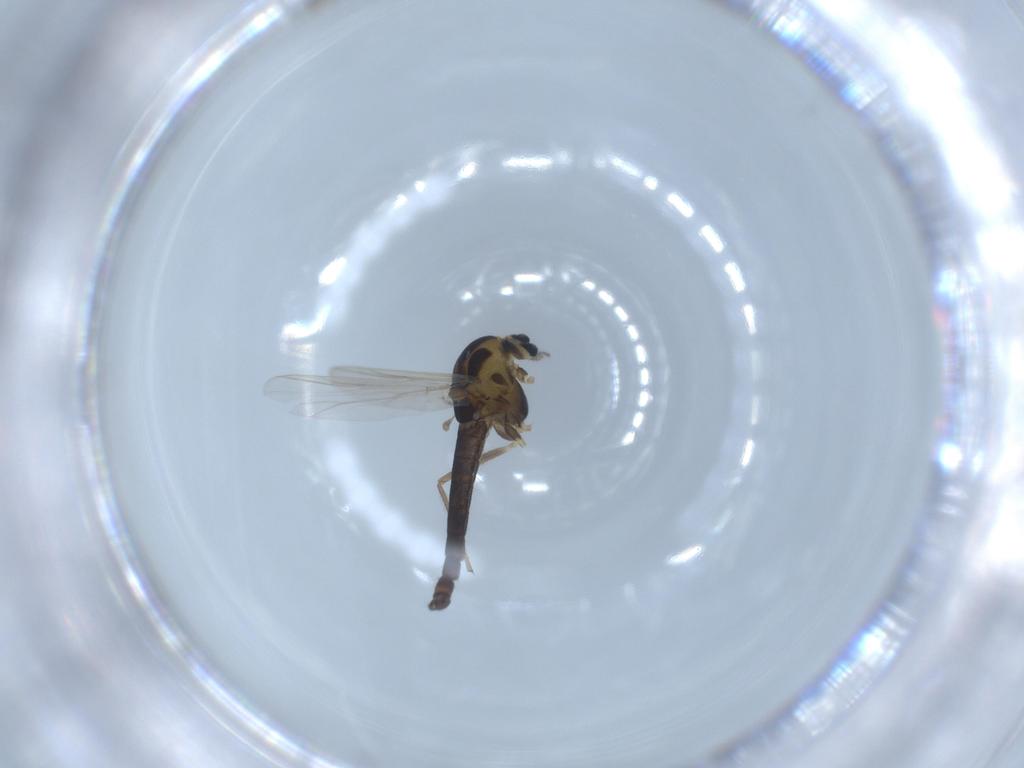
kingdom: Animalia
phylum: Arthropoda
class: Insecta
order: Diptera
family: Chironomidae
